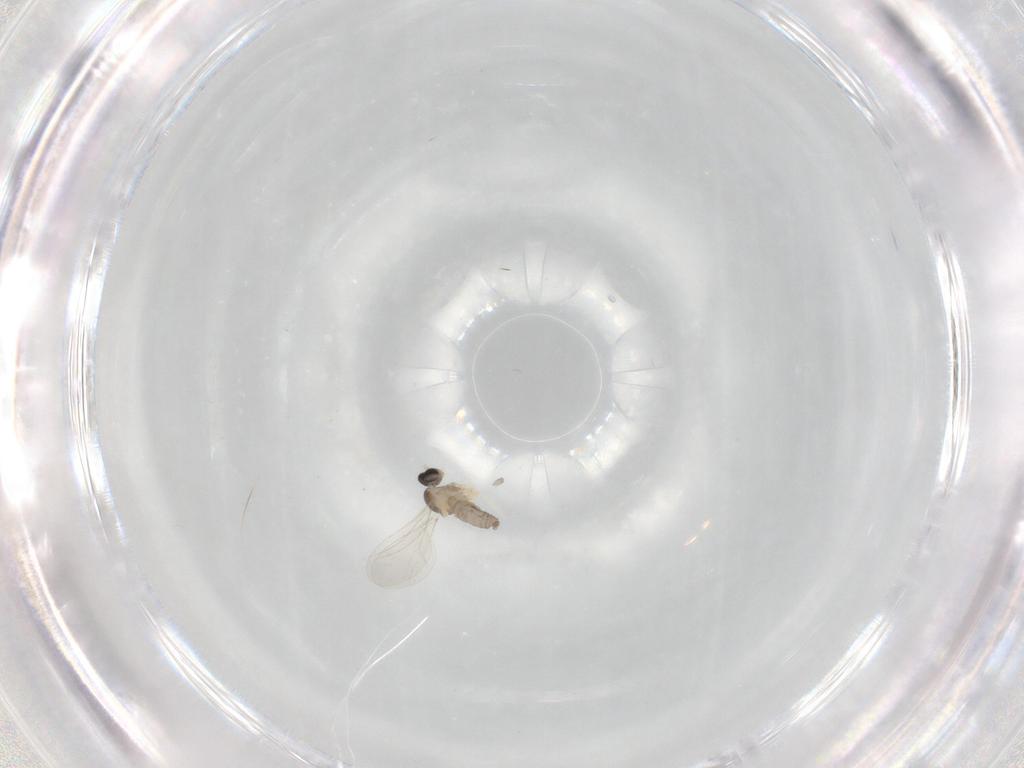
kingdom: Animalia
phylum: Arthropoda
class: Insecta
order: Diptera
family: Cecidomyiidae
